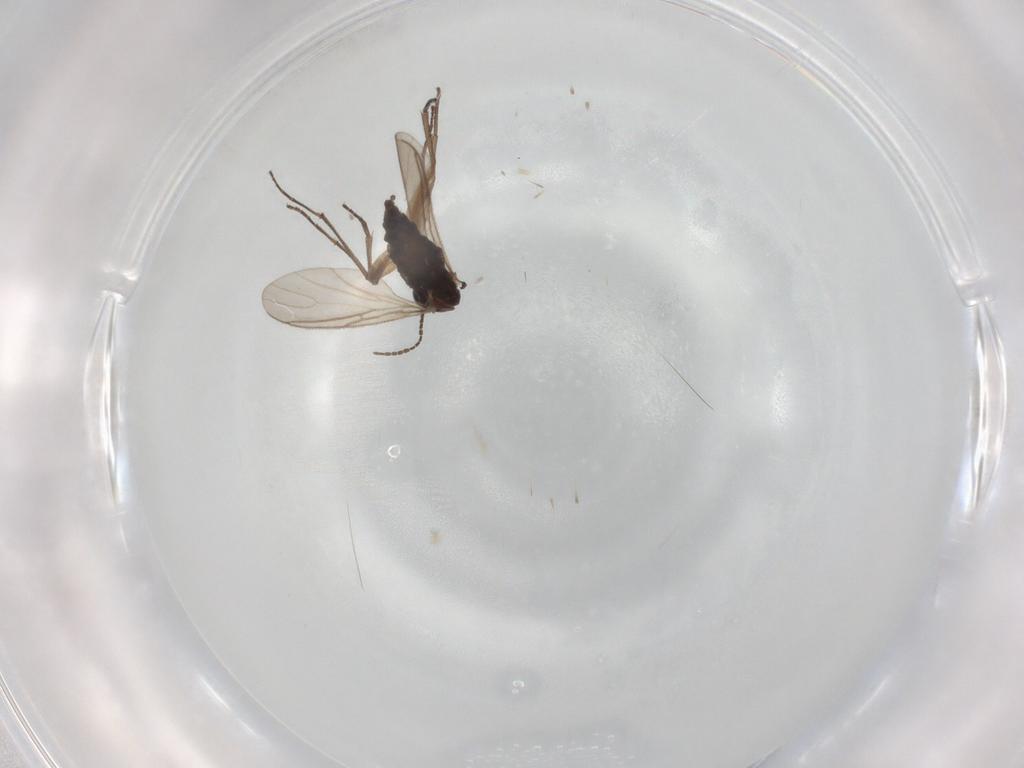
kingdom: Animalia
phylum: Arthropoda
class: Insecta
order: Diptera
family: Sciaridae
